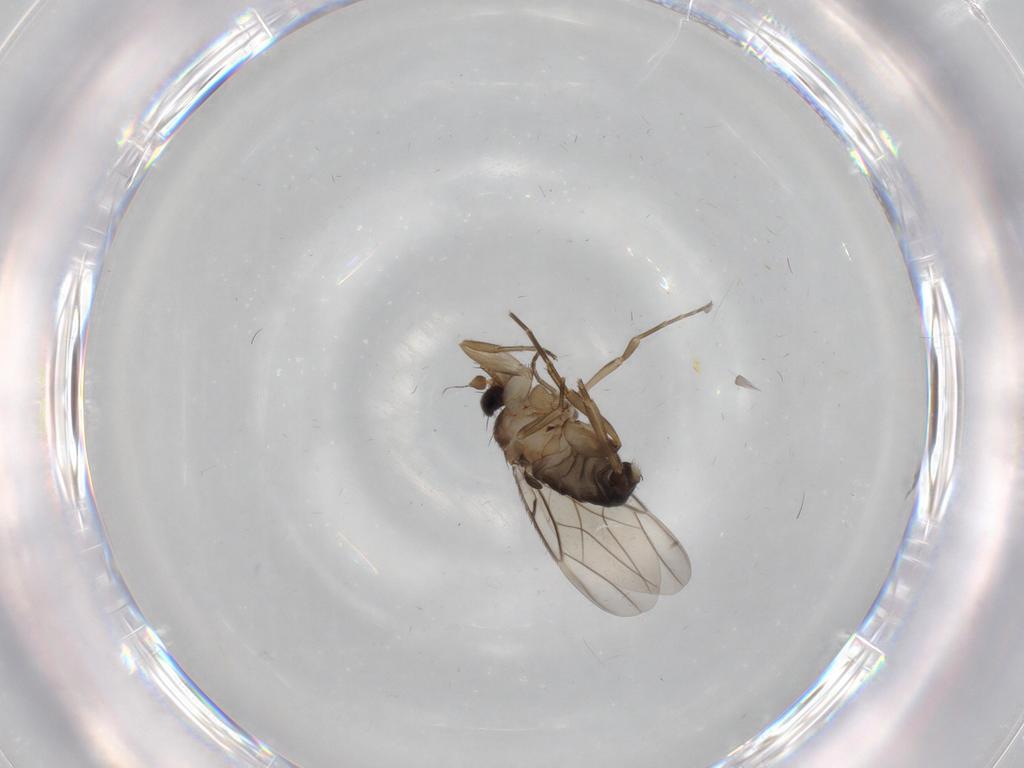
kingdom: Animalia
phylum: Arthropoda
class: Insecta
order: Diptera
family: Phoridae
